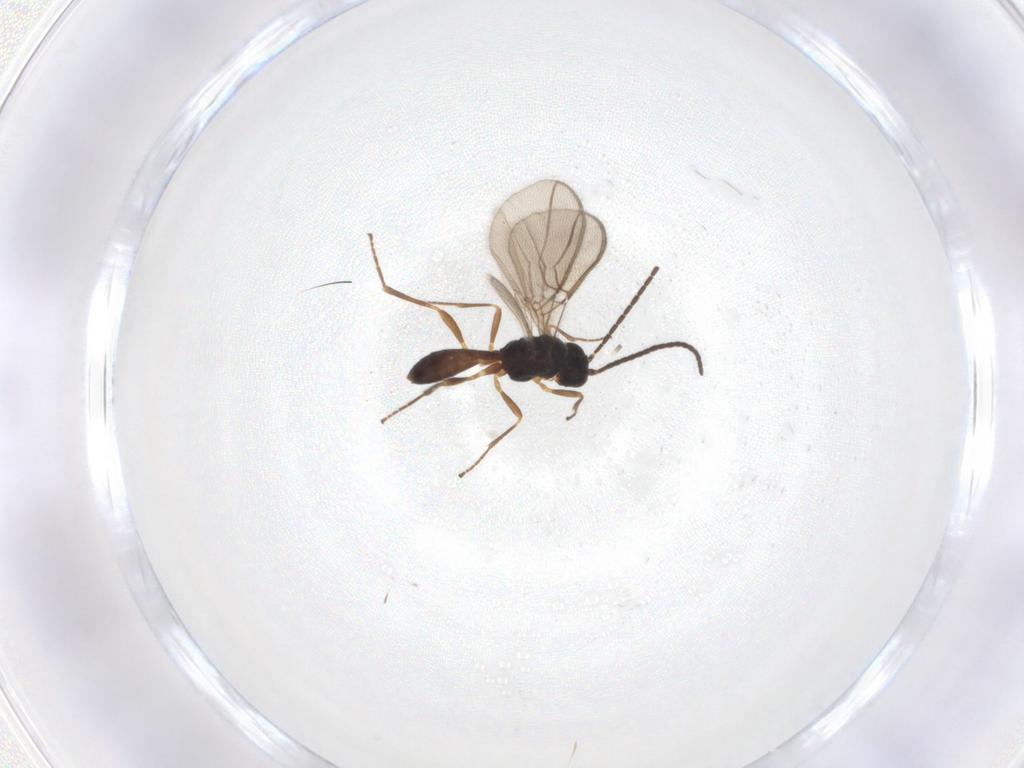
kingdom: Animalia
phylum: Arthropoda
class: Insecta
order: Hymenoptera
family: Braconidae
